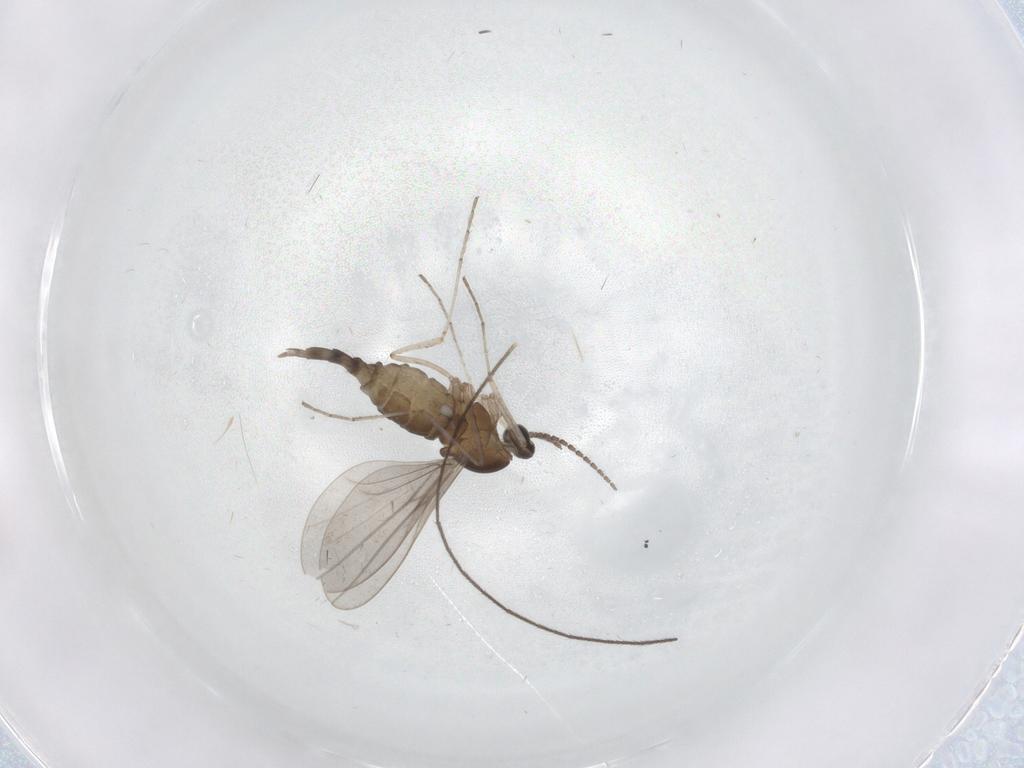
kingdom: Animalia
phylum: Arthropoda
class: Insecta
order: Diptera
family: Cecidomyiidae
